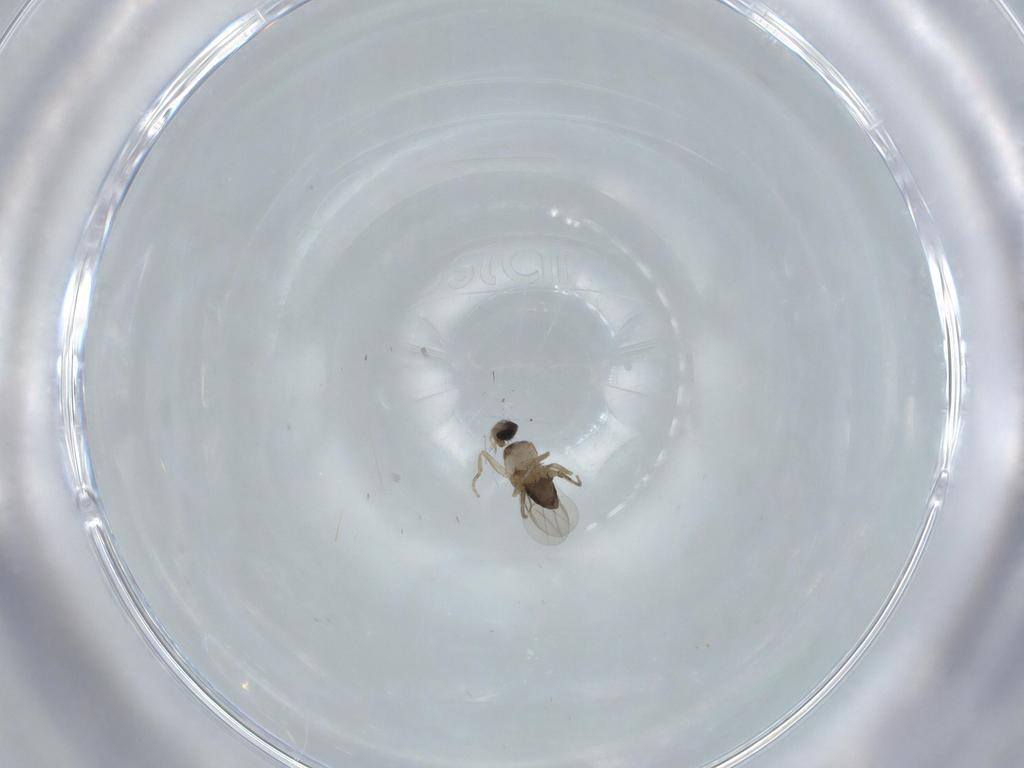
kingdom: Animalia
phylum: Arthropoda
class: Insecta
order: Diptera
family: Phoridae
